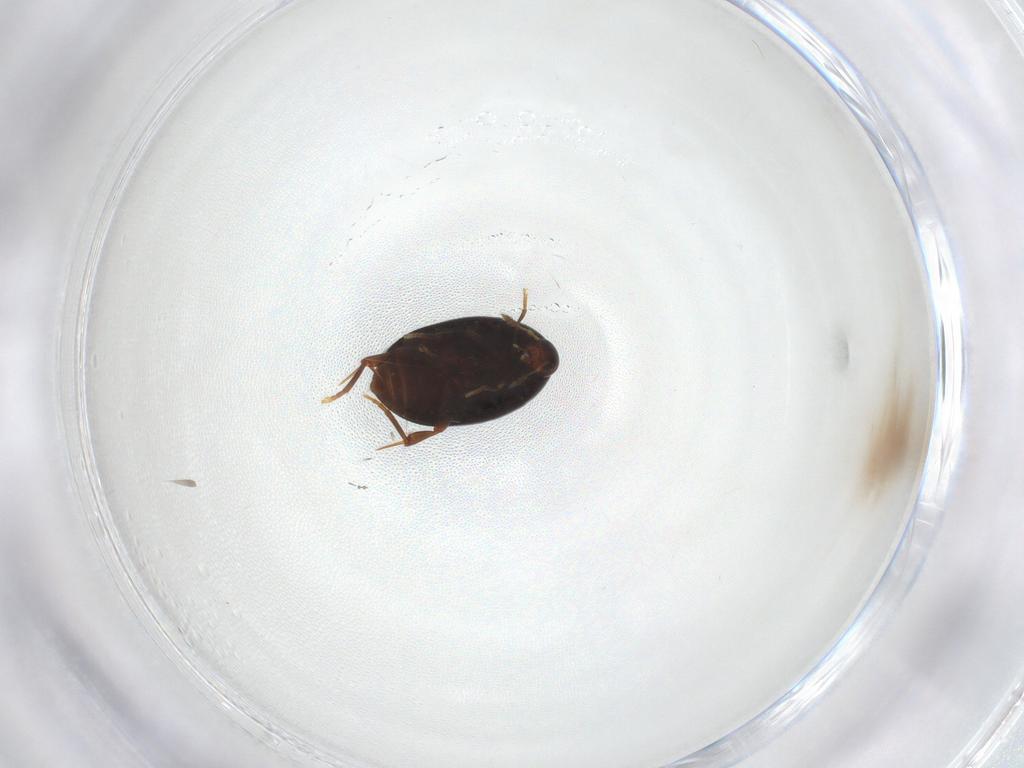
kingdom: Animalia
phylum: Arthropoda
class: Insecta
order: Coleoptera
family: Melandryidae
